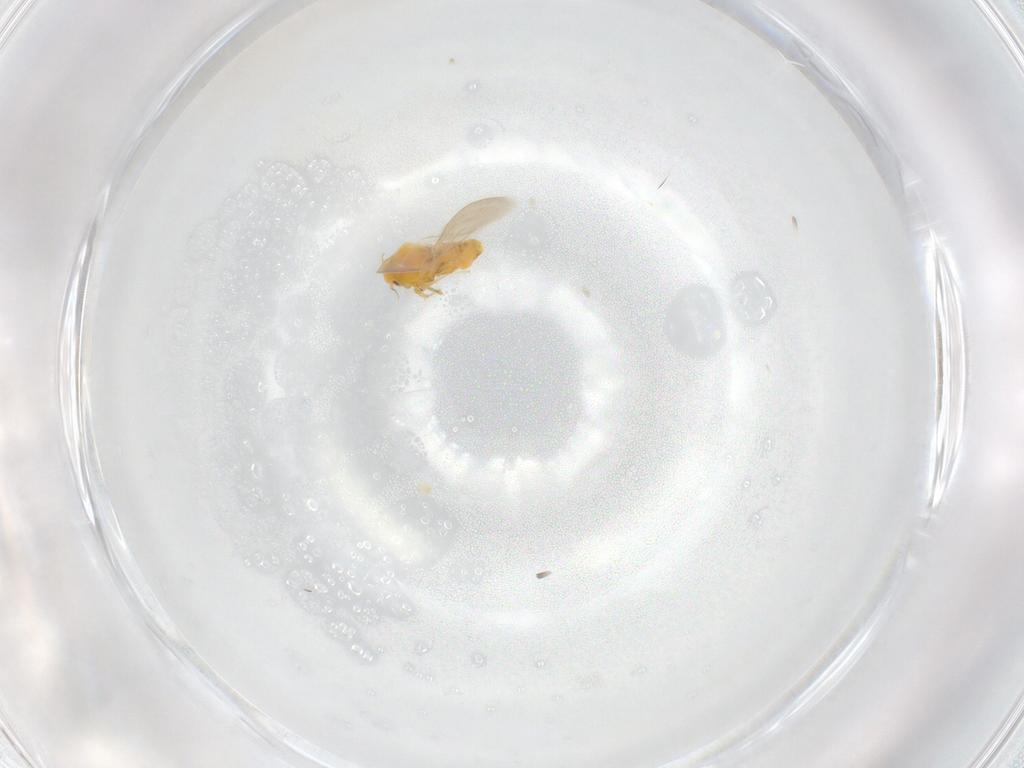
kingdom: Animalia
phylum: Arthropoda
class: Insecta
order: Hemiptera
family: Aleyrodidae
